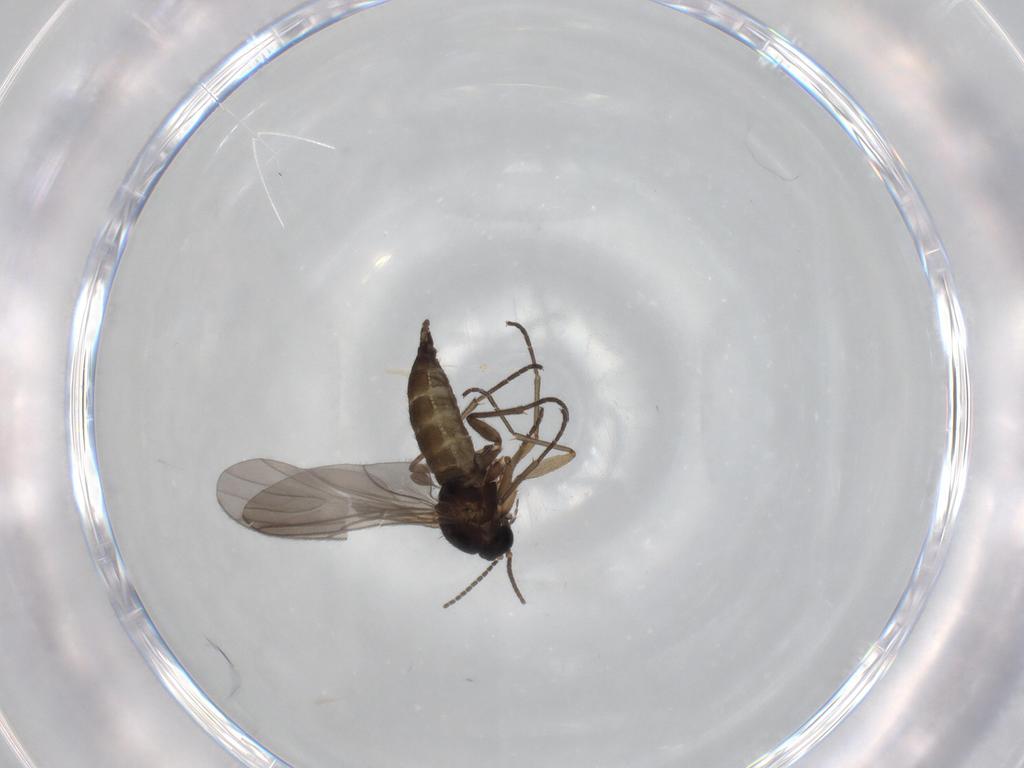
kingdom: Animalia
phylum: Arthropoda
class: Insecta
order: Diptera
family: Sciaridae
